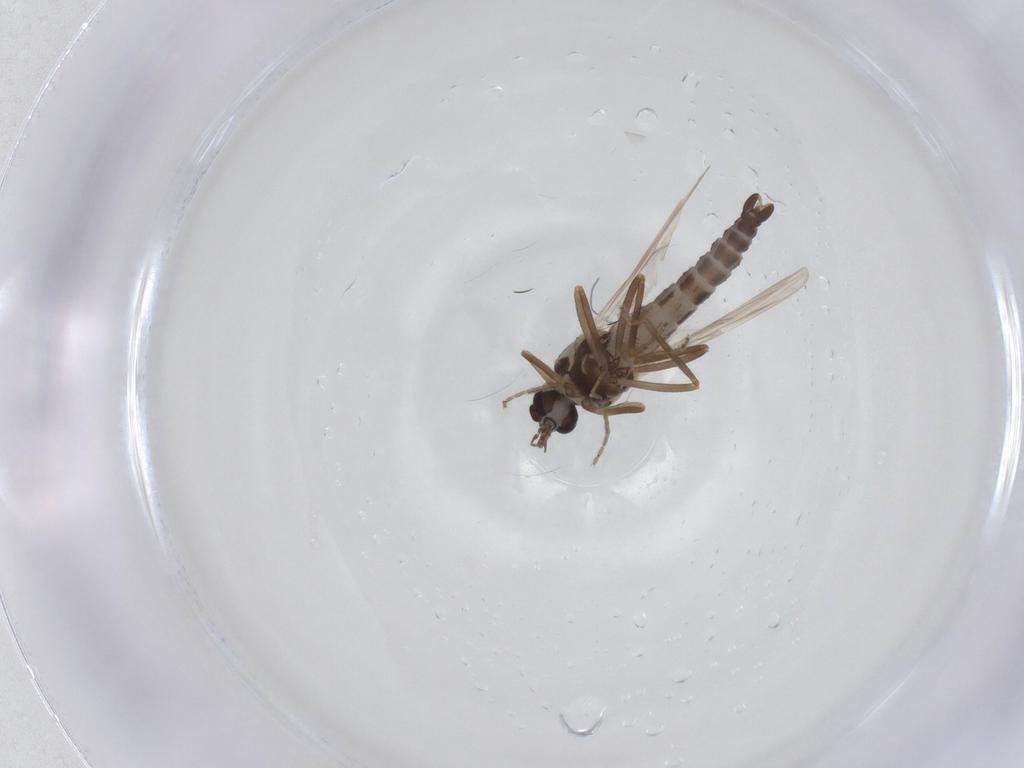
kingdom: Animalia
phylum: Arthropoda
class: Insecta
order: Diptera
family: Ceratopogonidae
